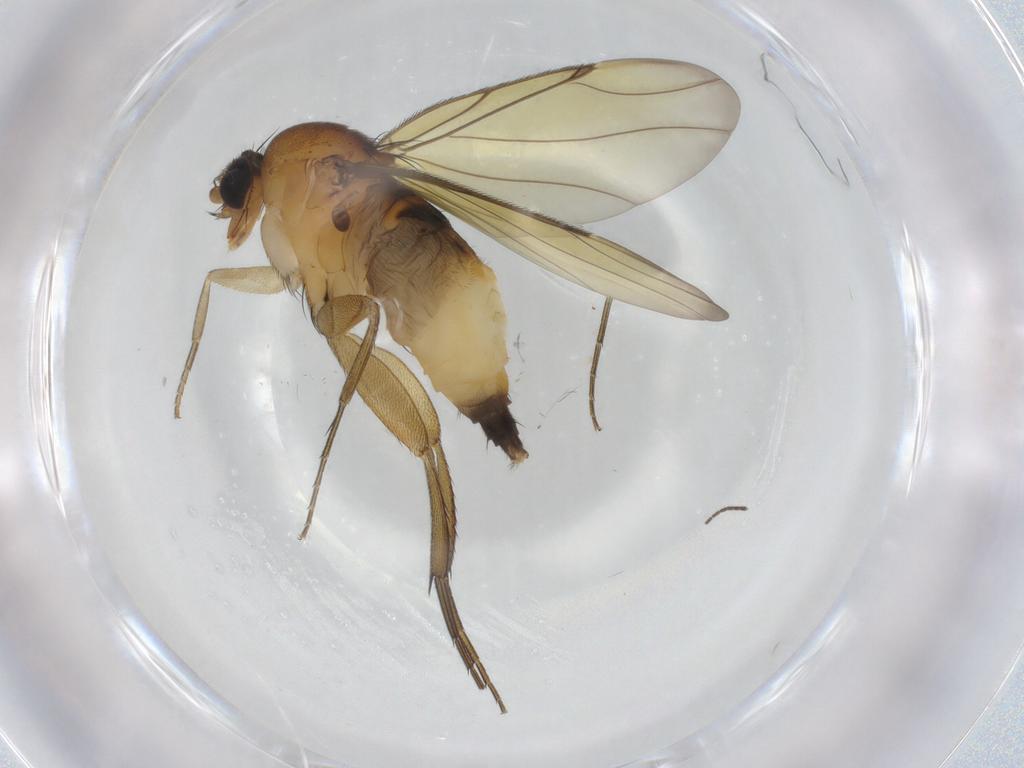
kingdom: Animalia
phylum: Arthropoda
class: Insecta
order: Diptera
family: Phoridae
